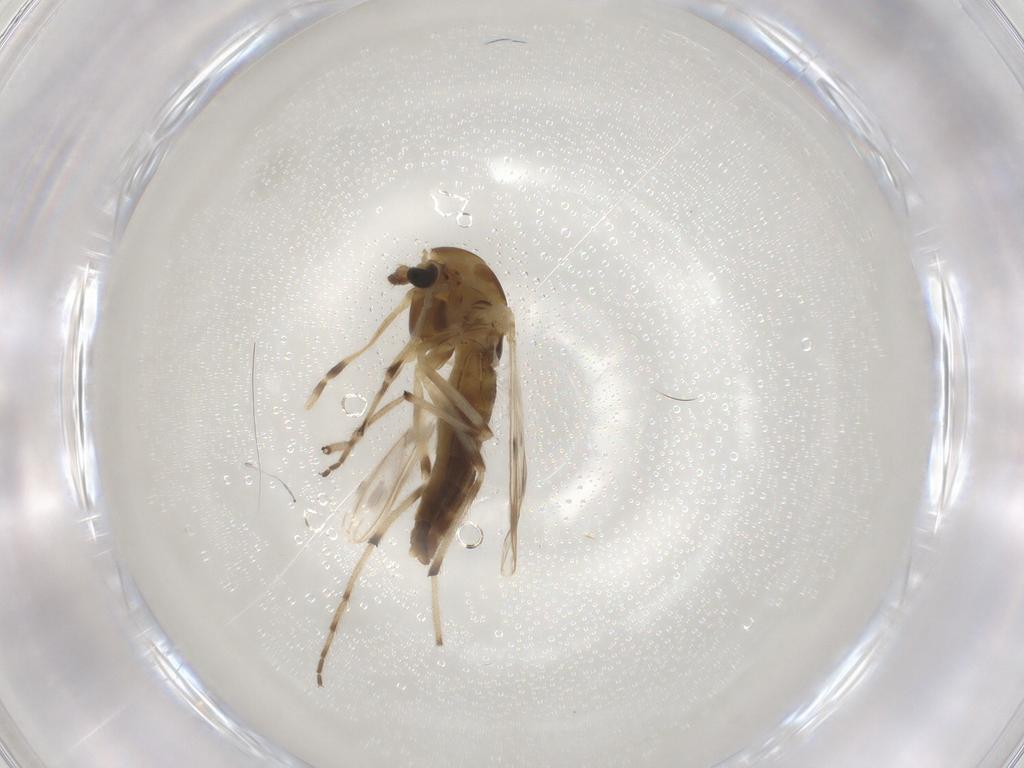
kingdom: Animalia
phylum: Arthropoda
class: Insecta
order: Diptera
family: Chironomidae
